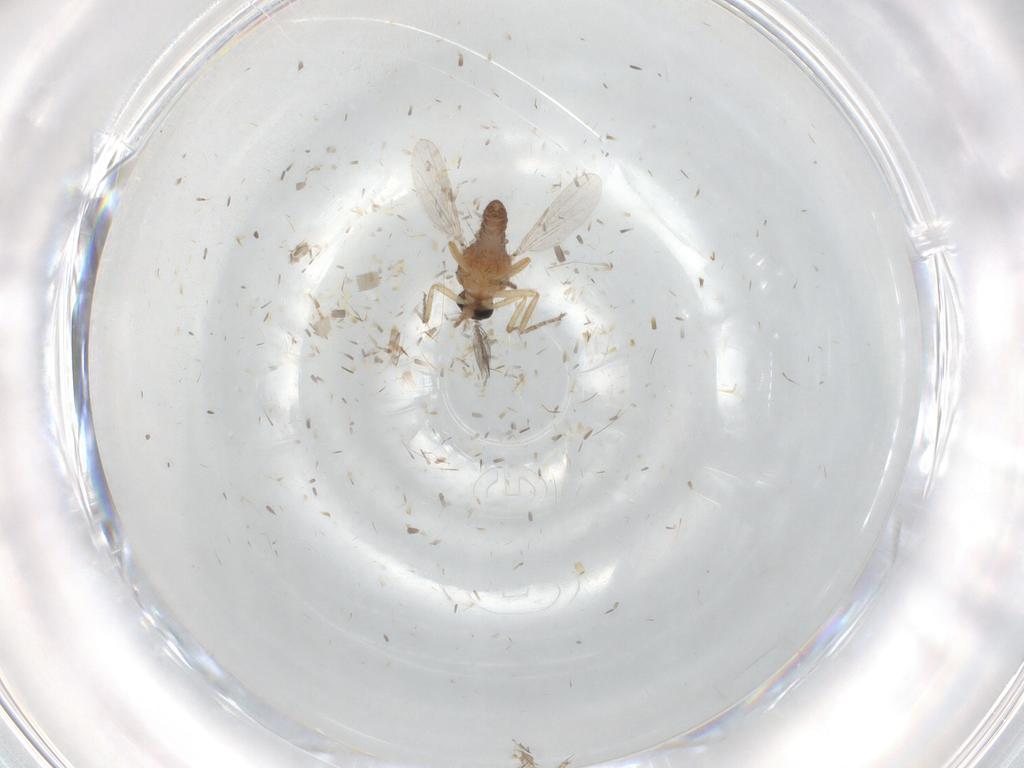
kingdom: Animalia
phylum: Arthropoda
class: Insecta
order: Diptera
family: Ceratopogonidae
